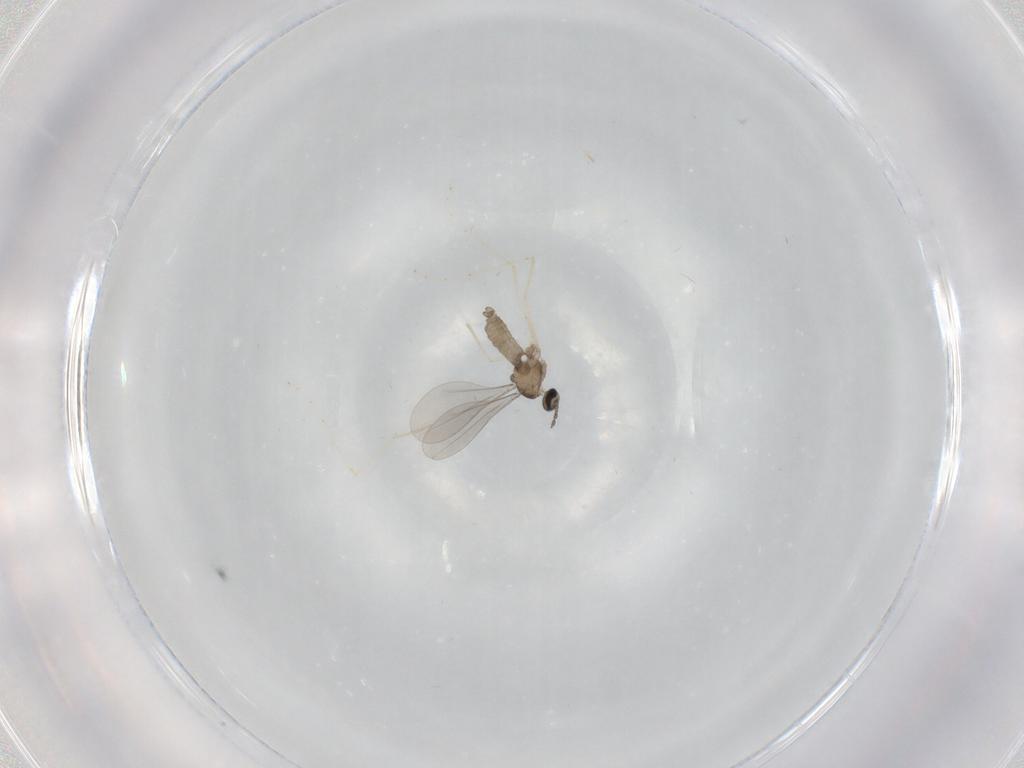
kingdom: Animalia
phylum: Arthropoda
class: Insecta
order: Diptera
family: Cecidomyiidae
